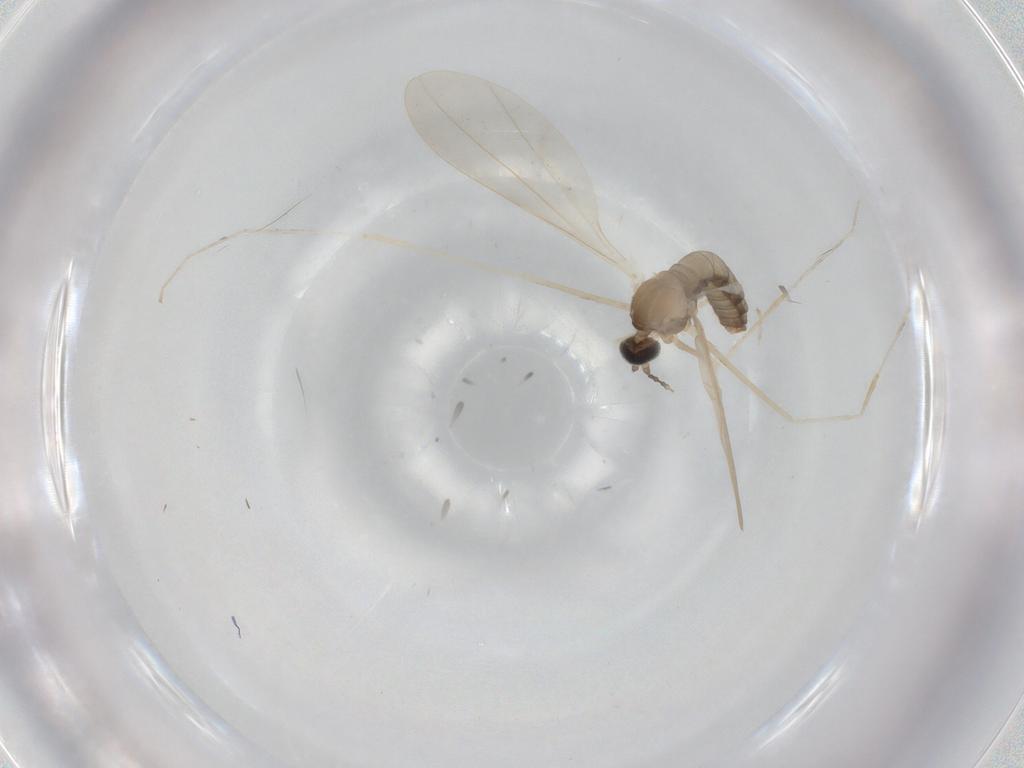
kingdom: Animalia
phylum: Arthropoda
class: Insecta
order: Diptera
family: Cecidomyiidae
